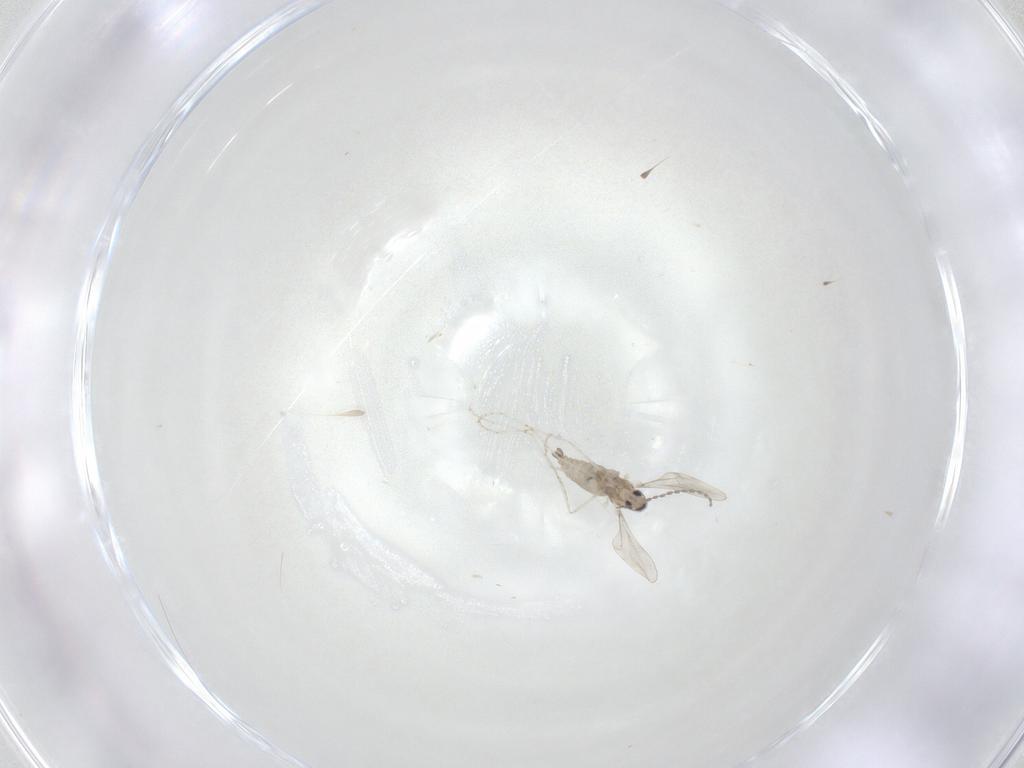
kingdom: Animalia
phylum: Arthropoda
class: Insecta
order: Diptera
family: Cecidomyiidae
